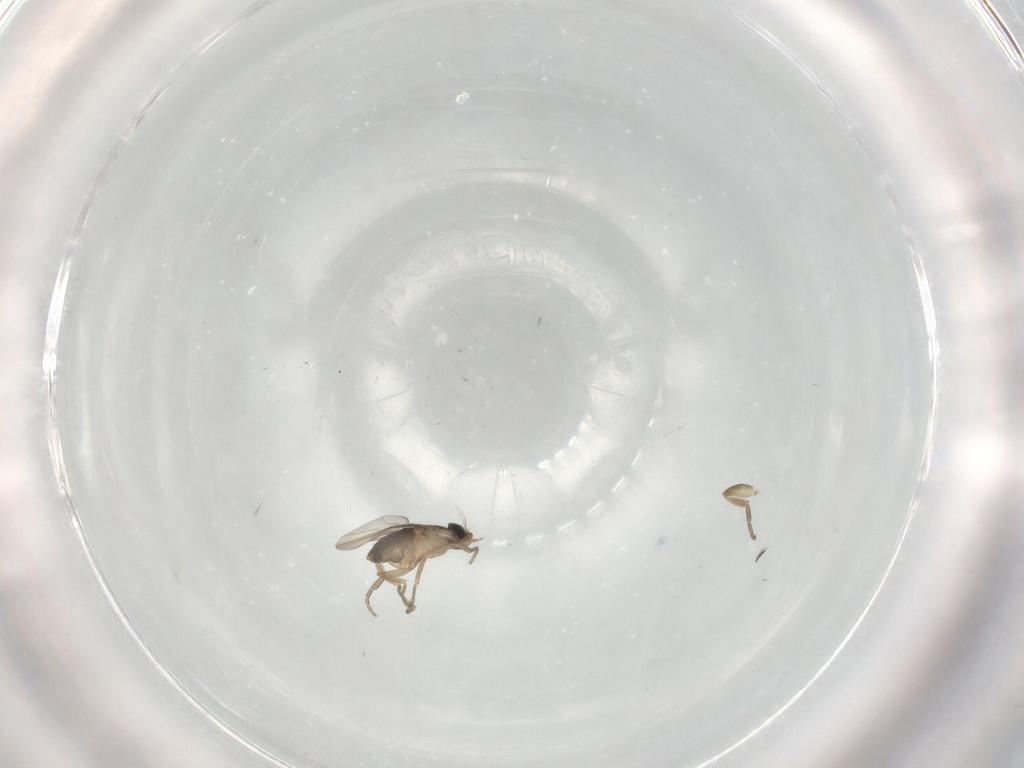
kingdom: Animalia
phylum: Arthropoda
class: Insecta
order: Diptera
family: Phoridae
